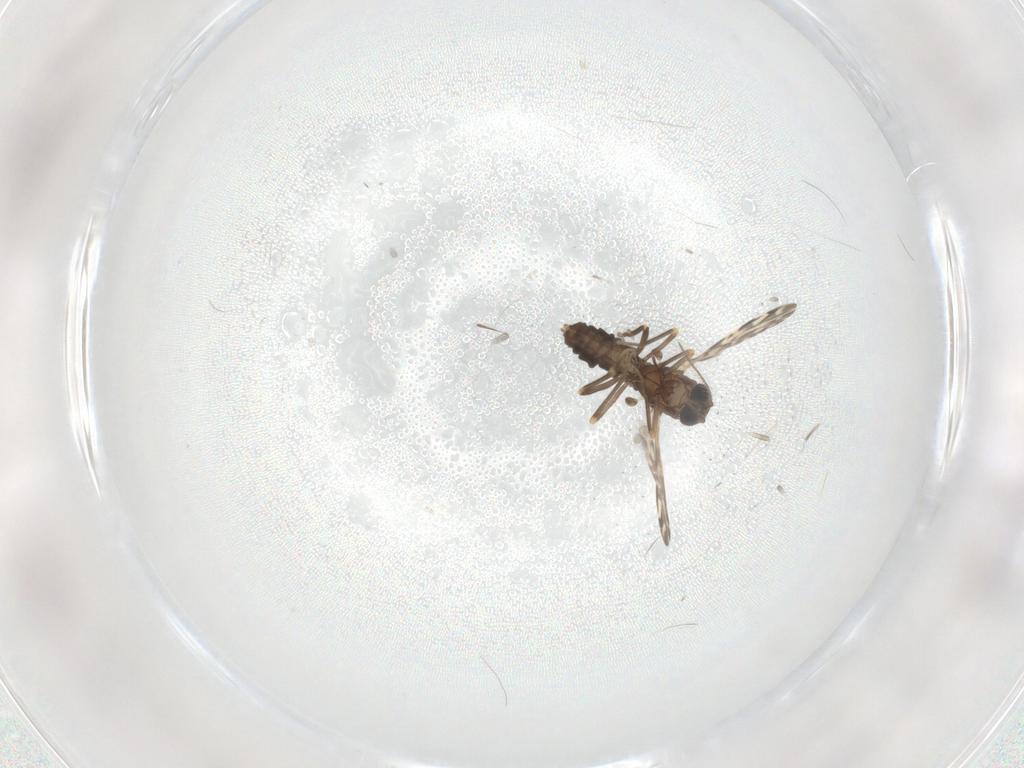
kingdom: Animalia
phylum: Arthropoda
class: Insecta
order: Diptera
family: Ceratopogonidae
